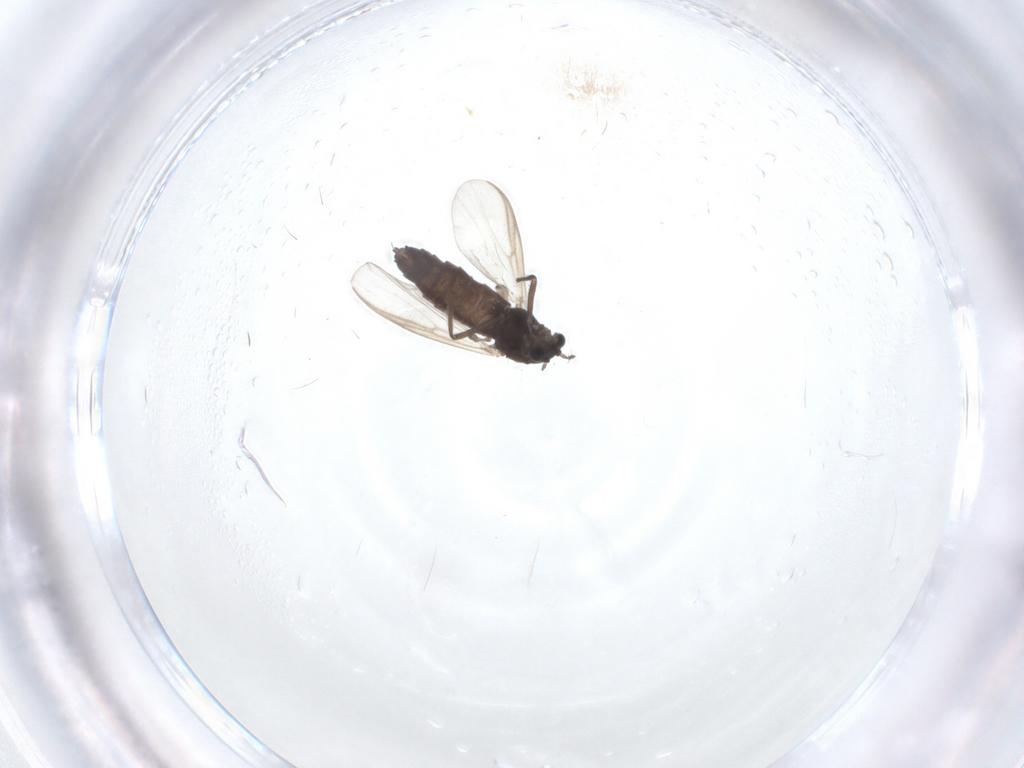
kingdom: Animalia
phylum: Arthropoda
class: Insecta
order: Diptera
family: Chironomidae
